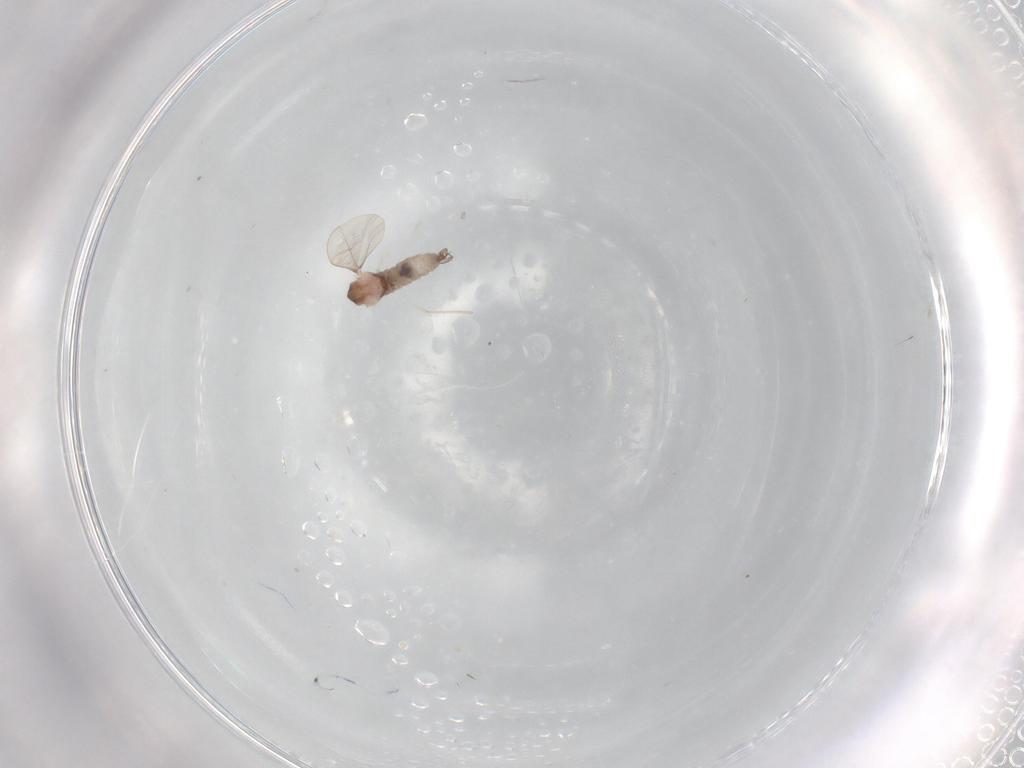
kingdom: Animalia
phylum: Arthropoda
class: Insecta
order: Diptera
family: Cecidomyiidae
